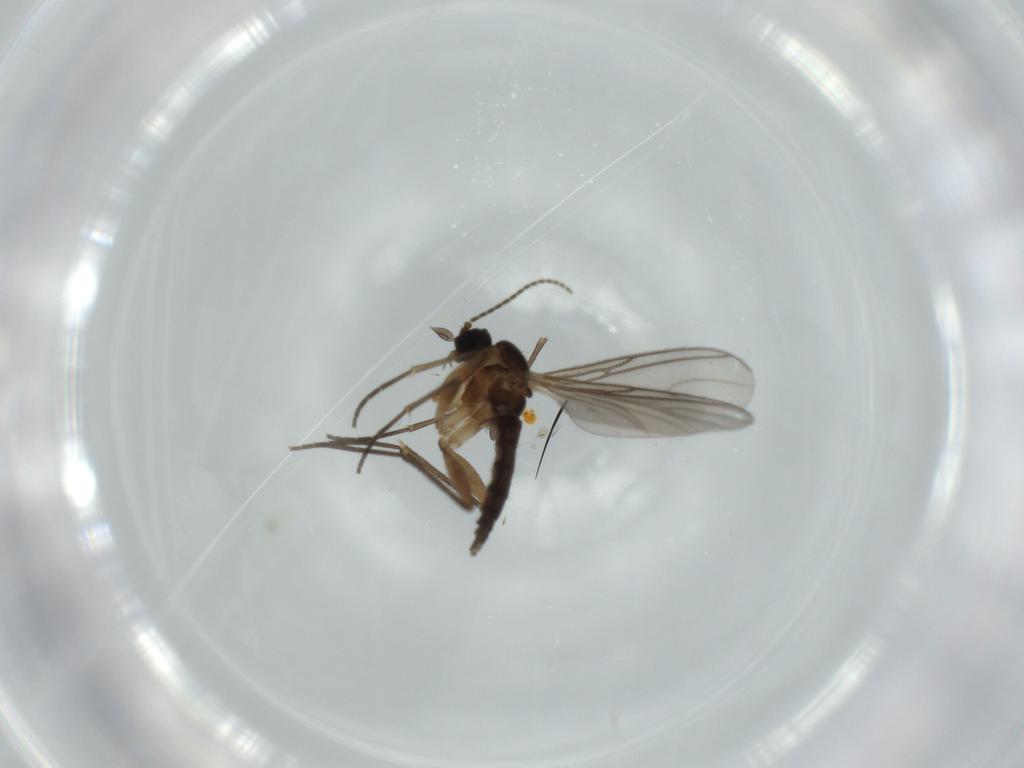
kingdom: Animalia
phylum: Arthropoda
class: Insecta
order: Diptera
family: Sciaridae
